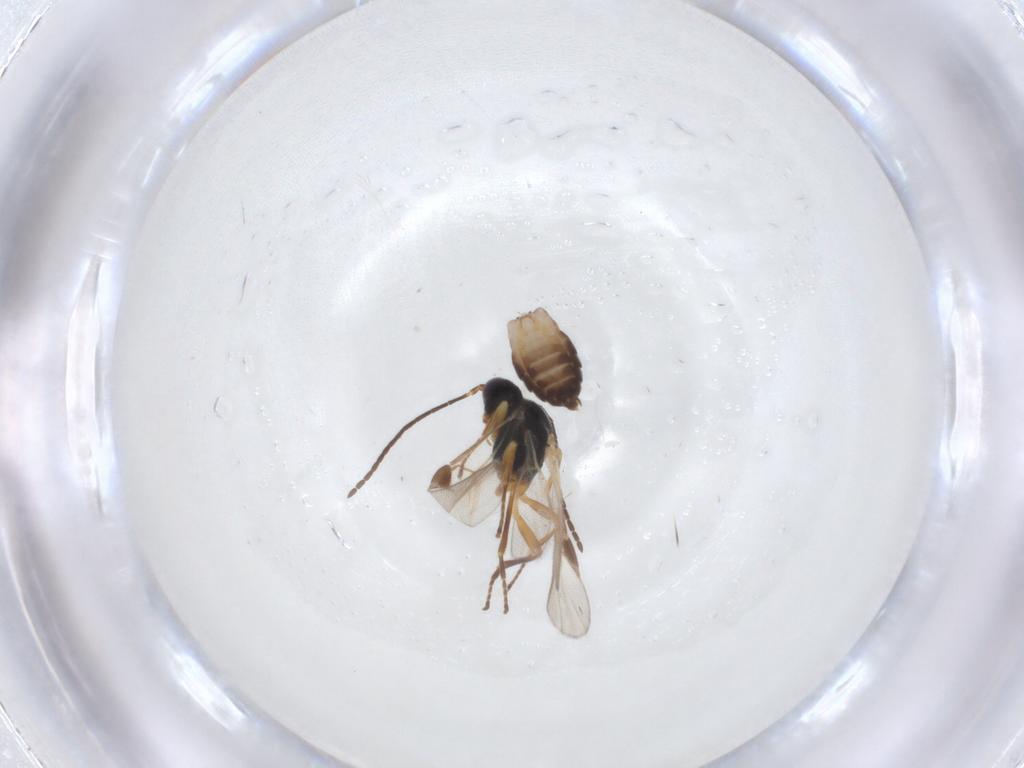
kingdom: Animalia
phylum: Arthropoda
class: Insecta
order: Hymenoptera
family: Braconidae
